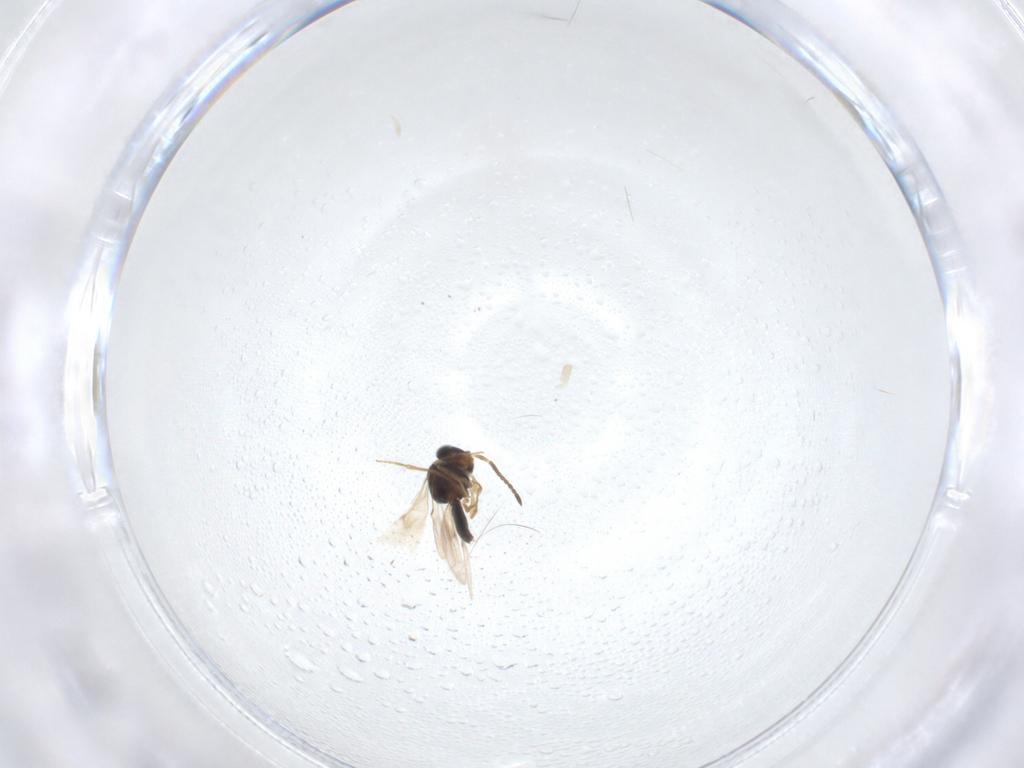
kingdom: Animalia
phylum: Arthropoda
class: Insecta
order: Hymenoptera
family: Scelionidae
